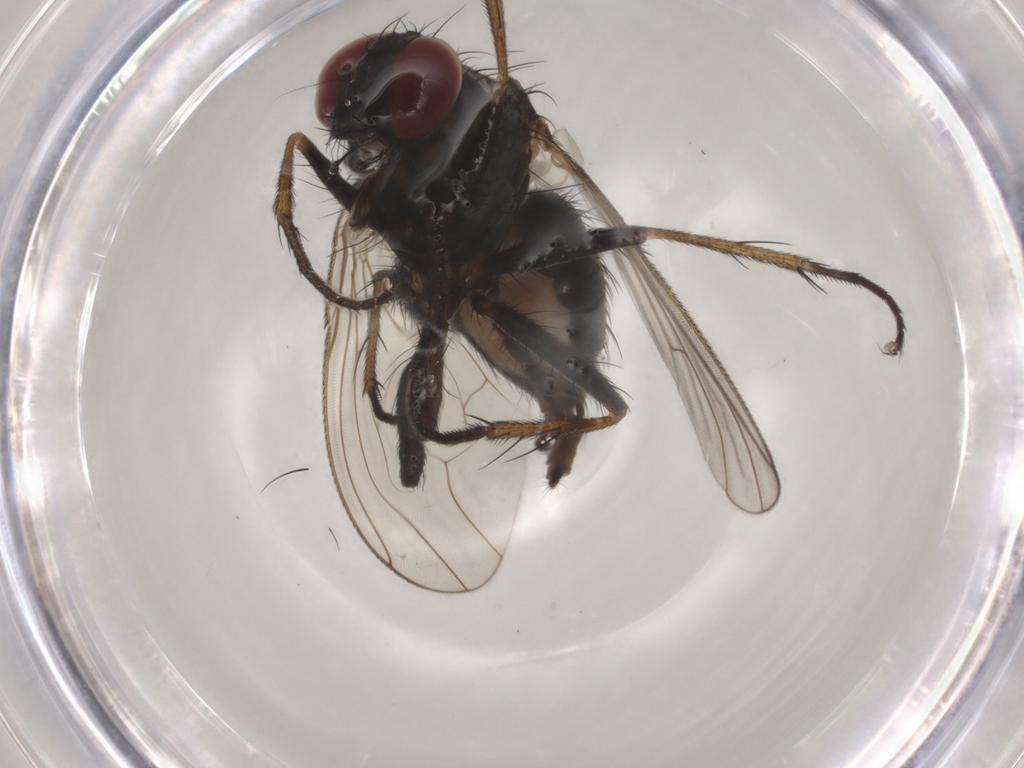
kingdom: Animalia
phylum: Arthropoda
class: Insecta
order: Diptera
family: Muscidae
